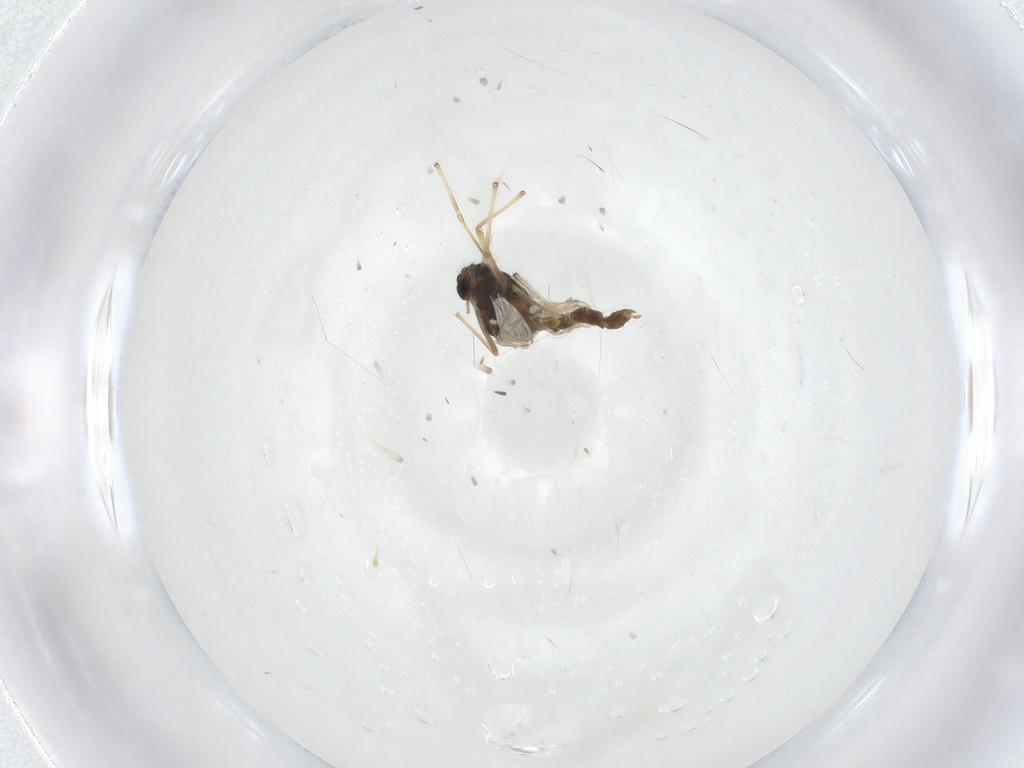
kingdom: Animalia
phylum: Arthropoda
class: Insecta
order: Diptera
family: Chironomidae
